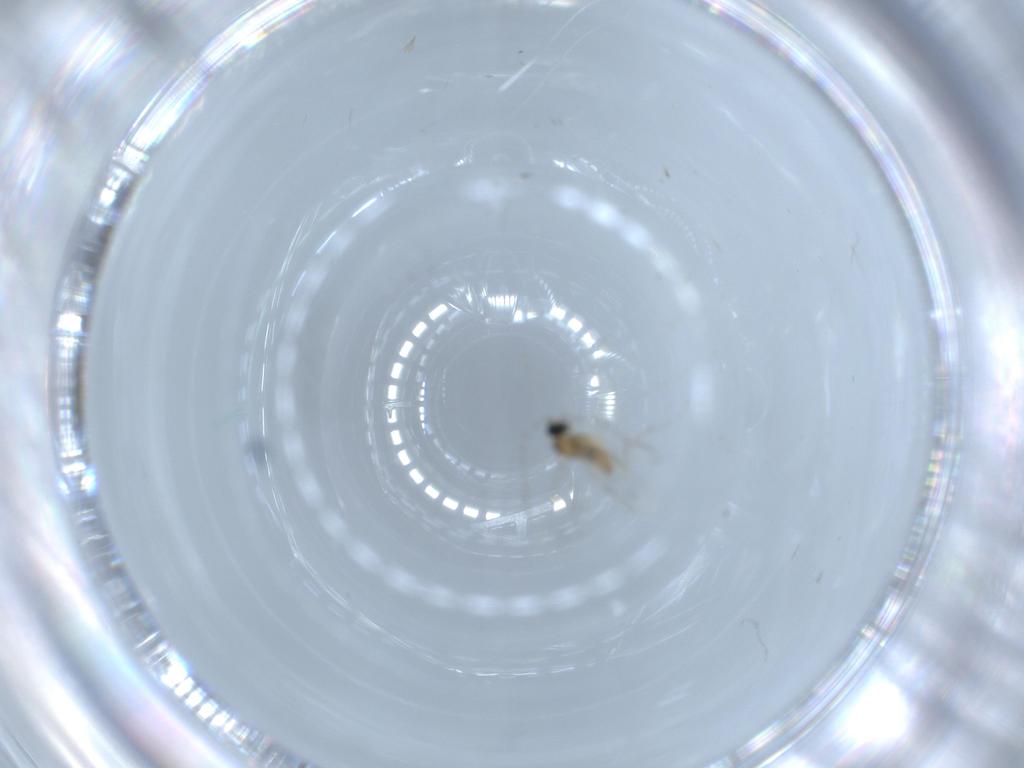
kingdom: Animalia
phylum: Arthropoda
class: Insecta
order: Diptera
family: Cecidomyiidae
